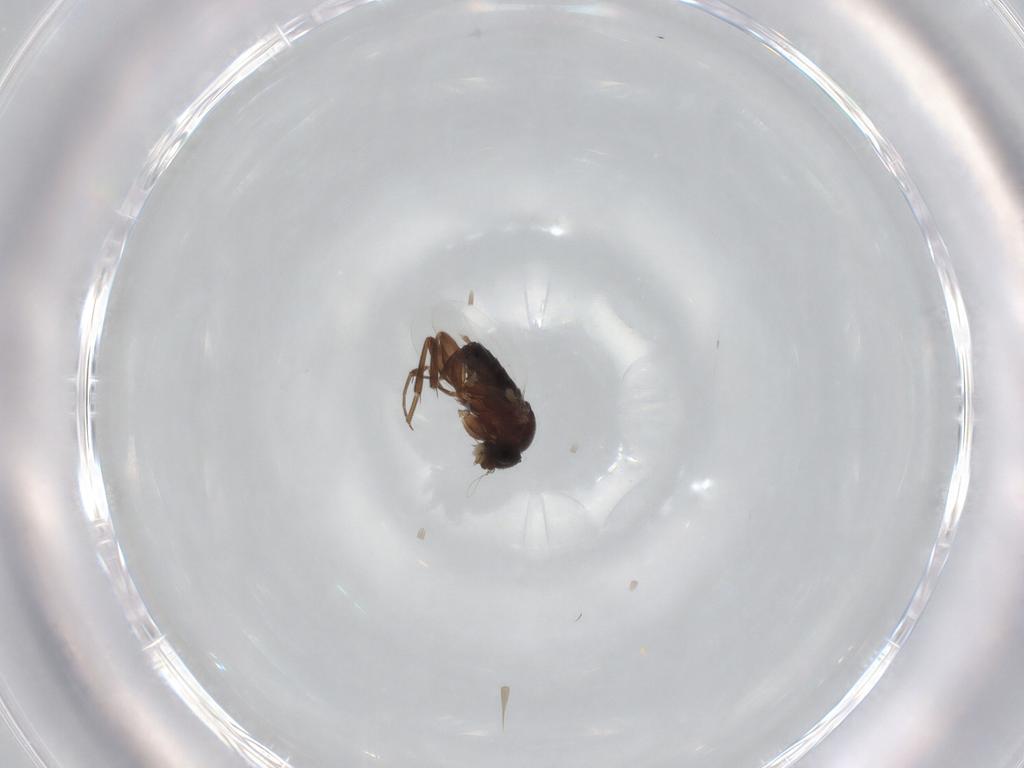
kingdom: Animalia
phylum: Arthropoda
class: Insecta
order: Diptera
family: Phoridae
